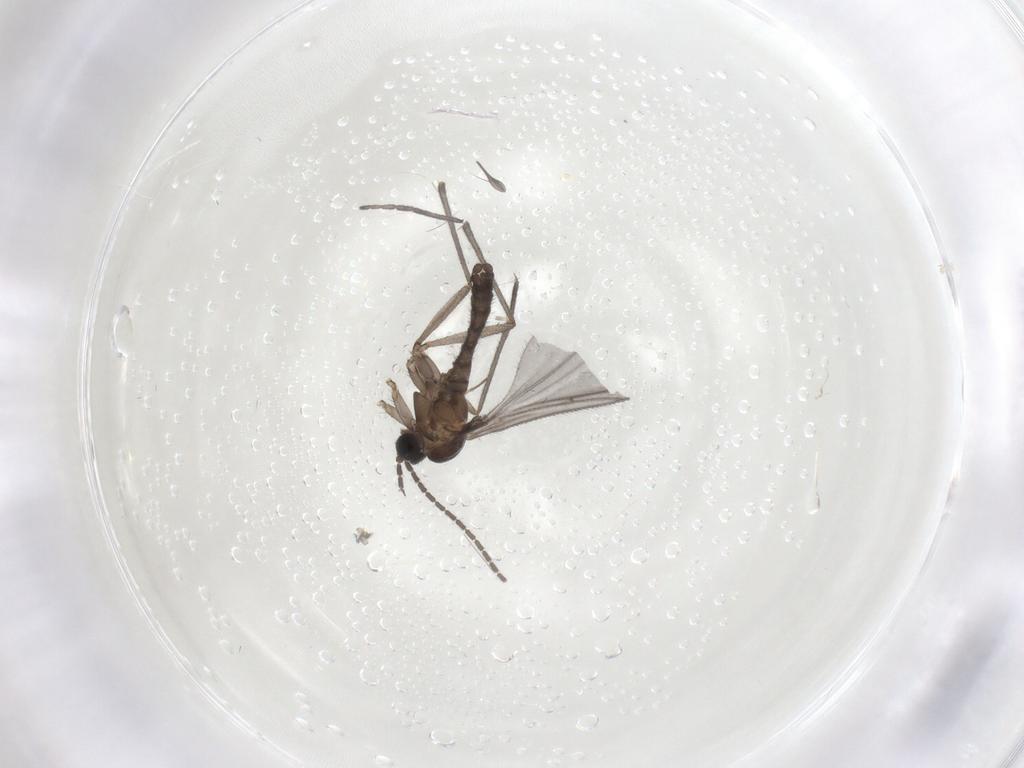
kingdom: Animalia
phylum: Arthropoda
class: Insecta
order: Diptera
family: Sciaridae
